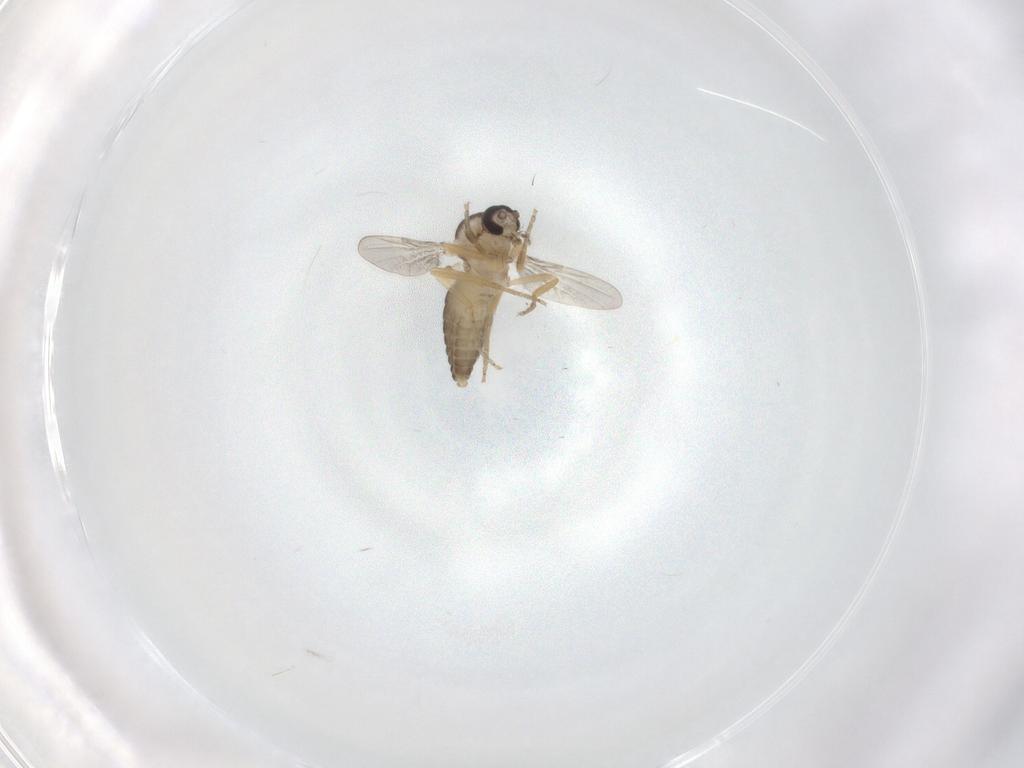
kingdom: Animalia
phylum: Arthropoda
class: Insecta
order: Diptera
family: Ceratopogonidae
